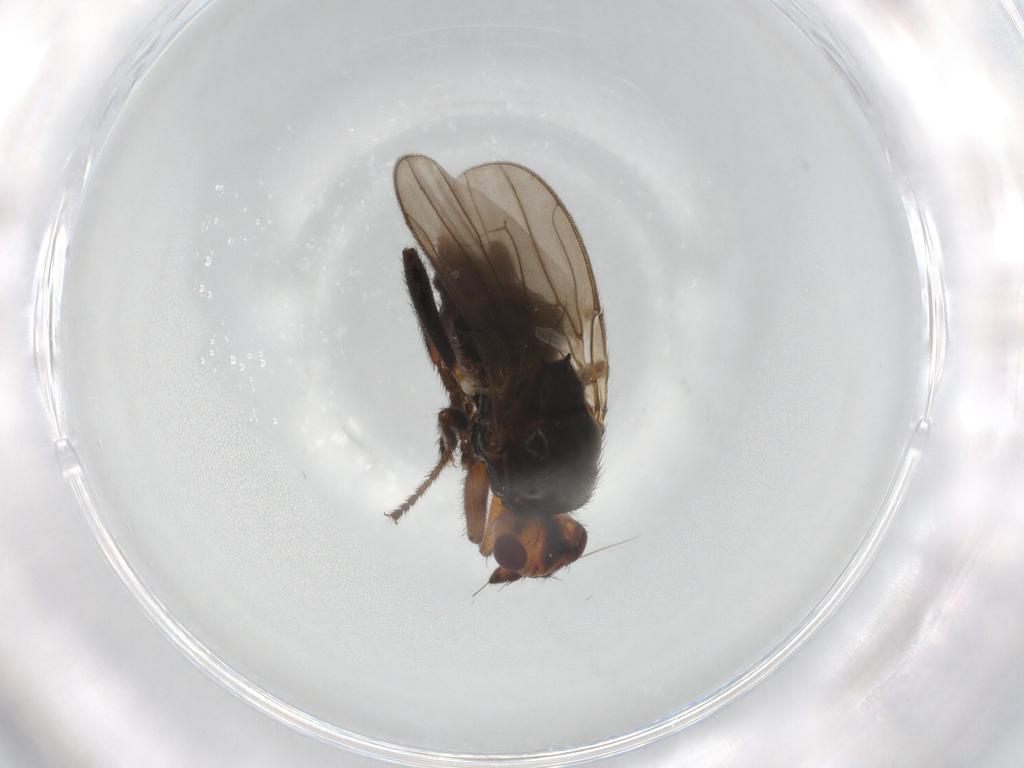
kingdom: Animalia
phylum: Arthropoda
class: Insecta
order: Diptera
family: Sphaeroceridae
